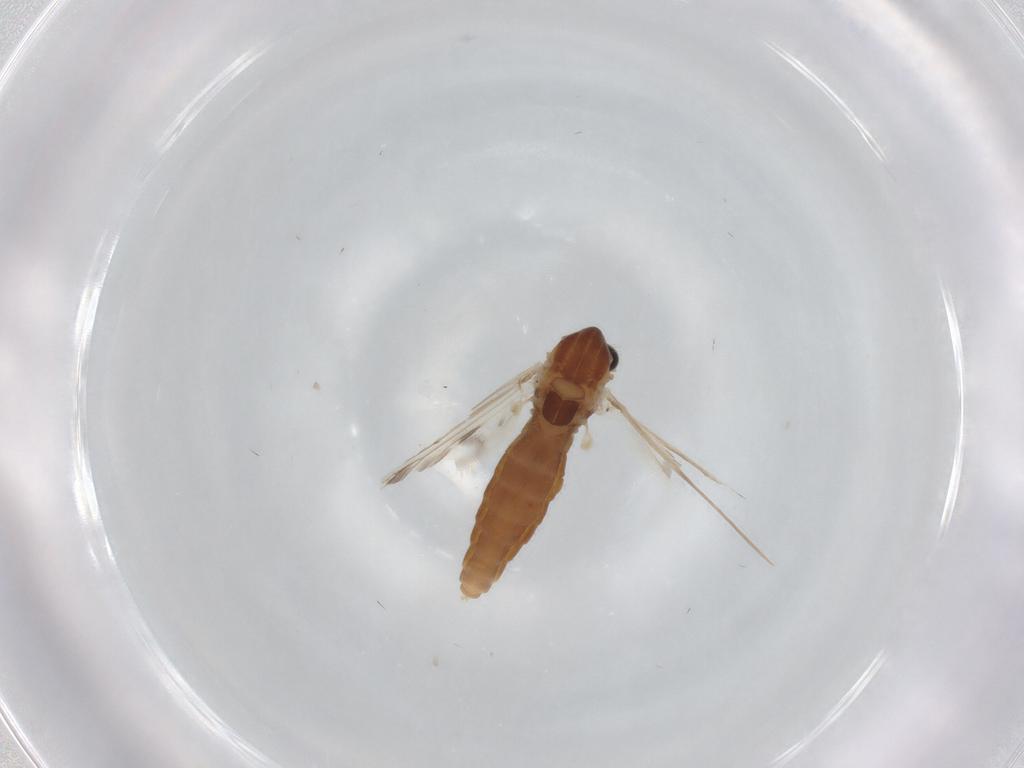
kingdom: Animalia
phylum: Arthropoda
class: Insecta
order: Diptera
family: Chironomidae
